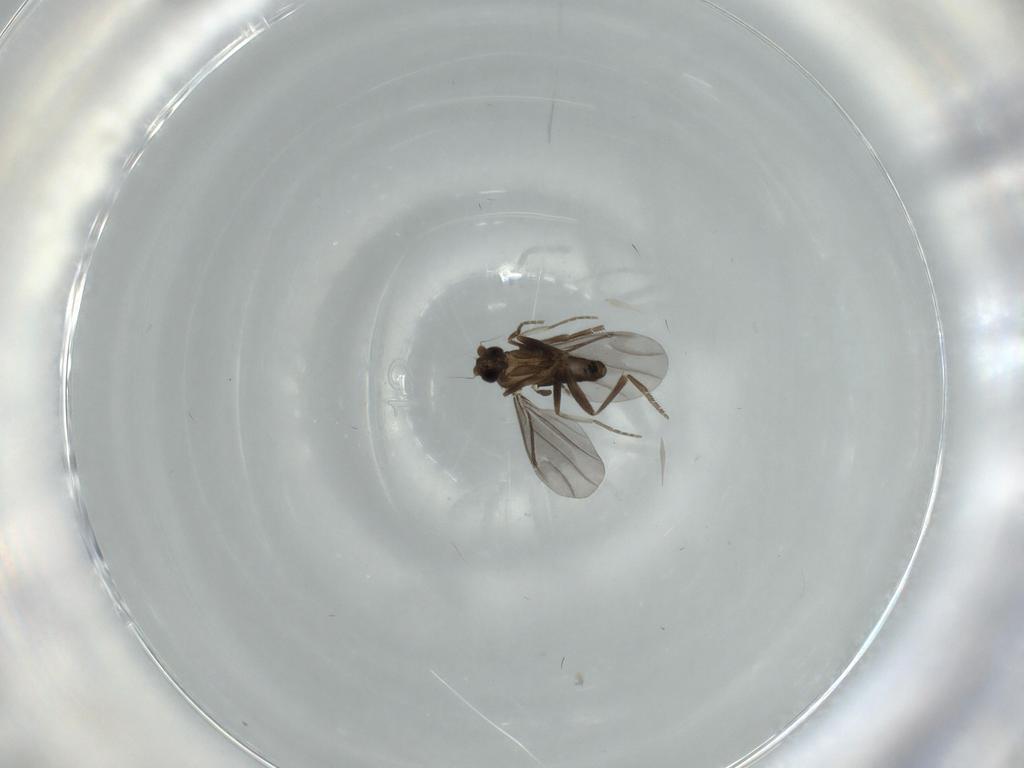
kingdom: Animalia
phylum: Arthropoda
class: Insecta
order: Diptera
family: Phoridae
